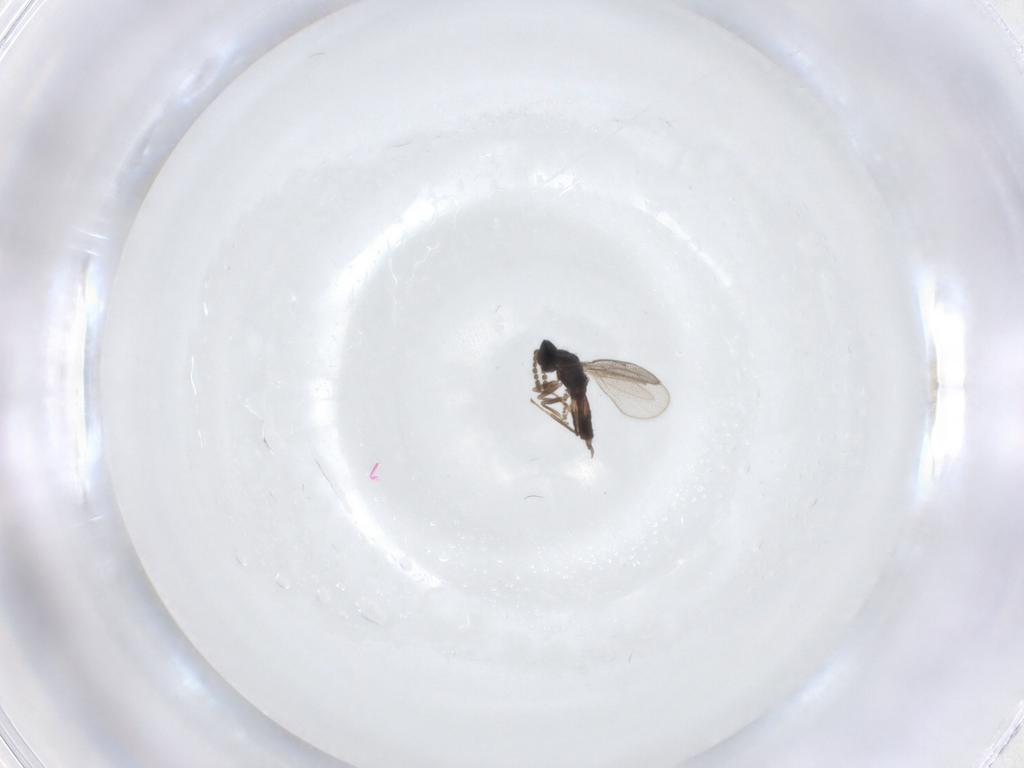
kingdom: Animalia
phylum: Arthropoda
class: Insecta
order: Hymenoptera
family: Eulophidae
